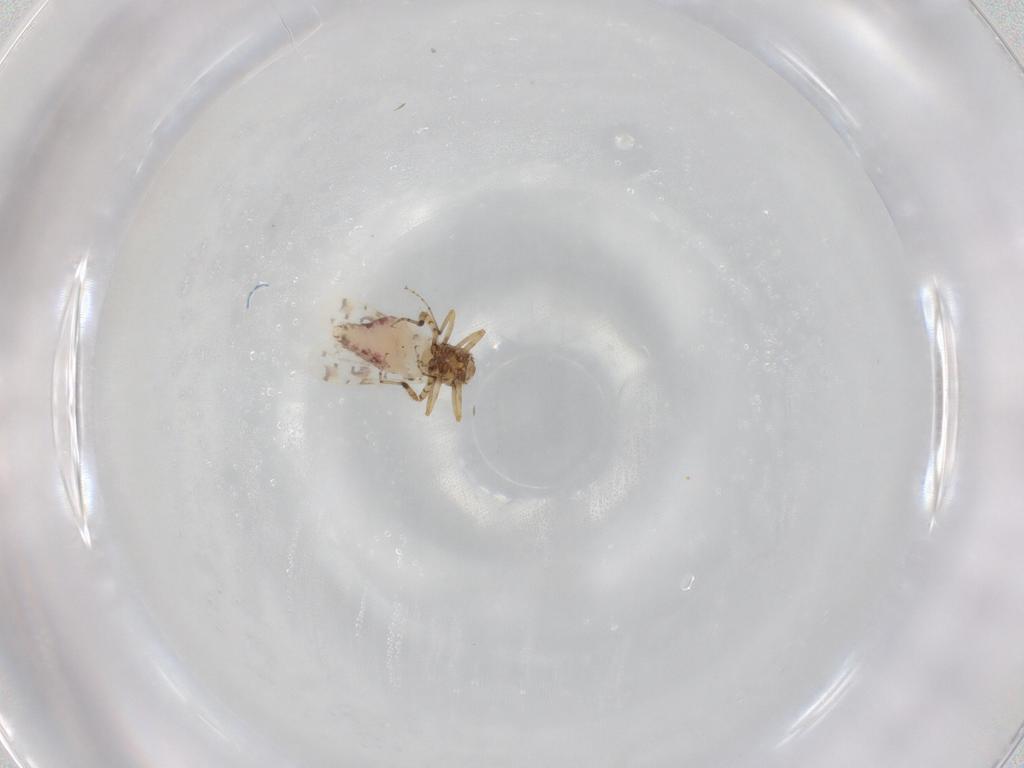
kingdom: Animalia
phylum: Arthropoda
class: Insecta
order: Diptera
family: Ceratopogonidae
